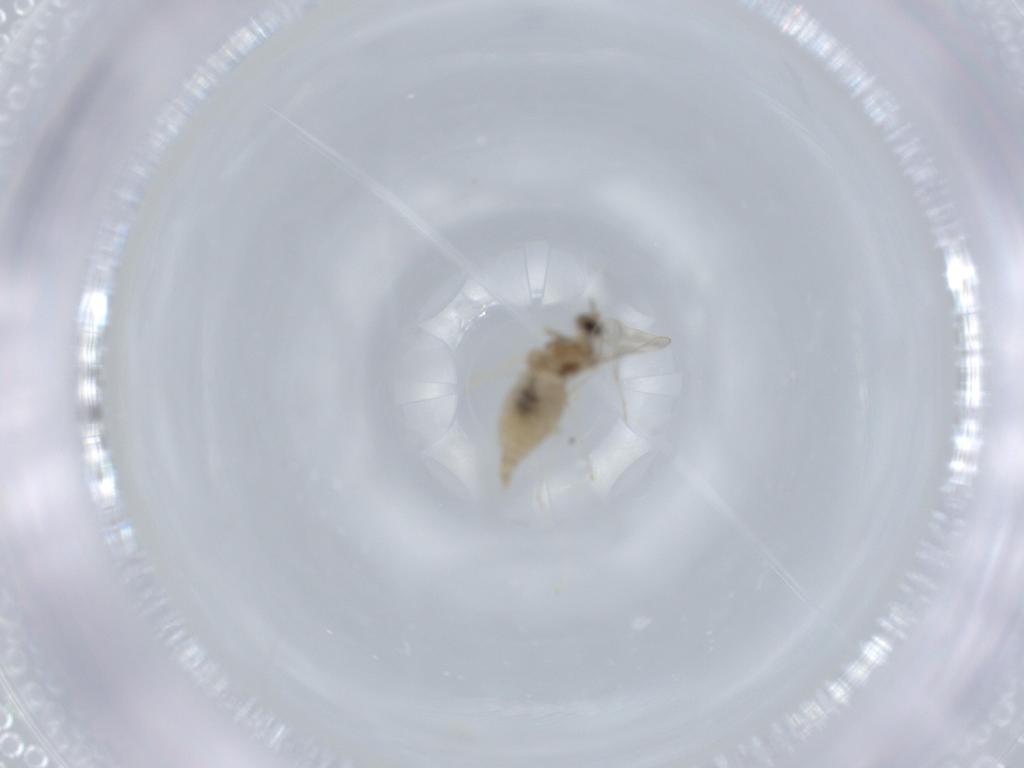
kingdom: Animalia
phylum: Arthropoda
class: Insecta
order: Diptera
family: Cecidomyiidae
